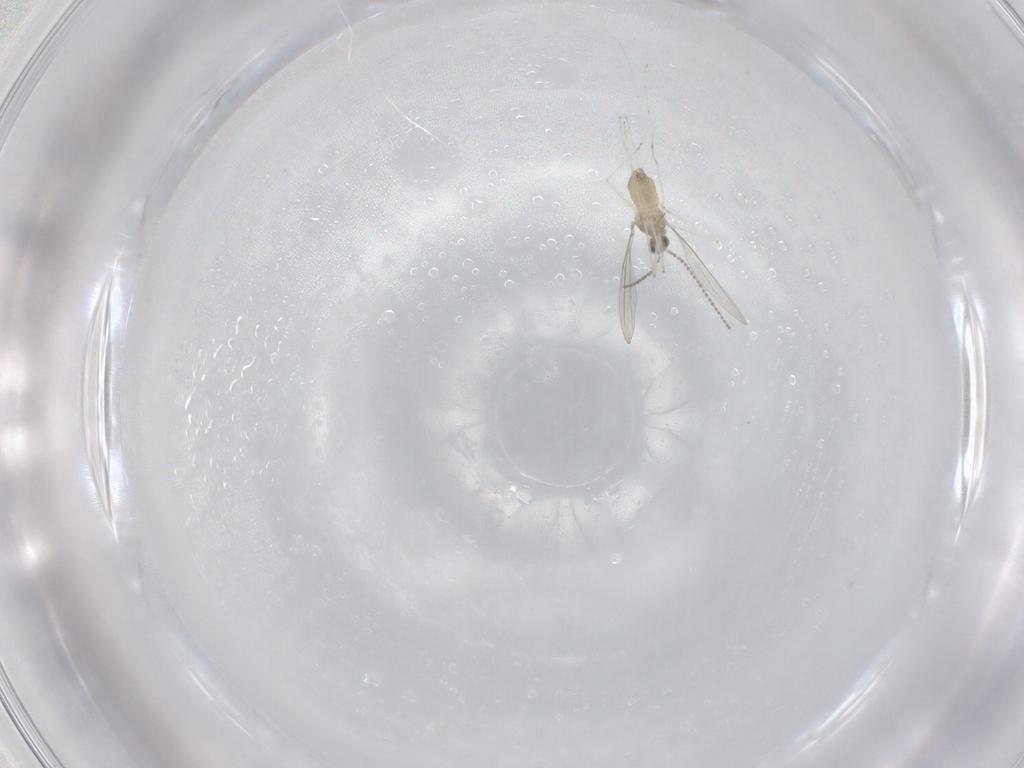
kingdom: Animalia
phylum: Arthropoda
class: Insecta
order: Diptera
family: Cecidomyiidae
